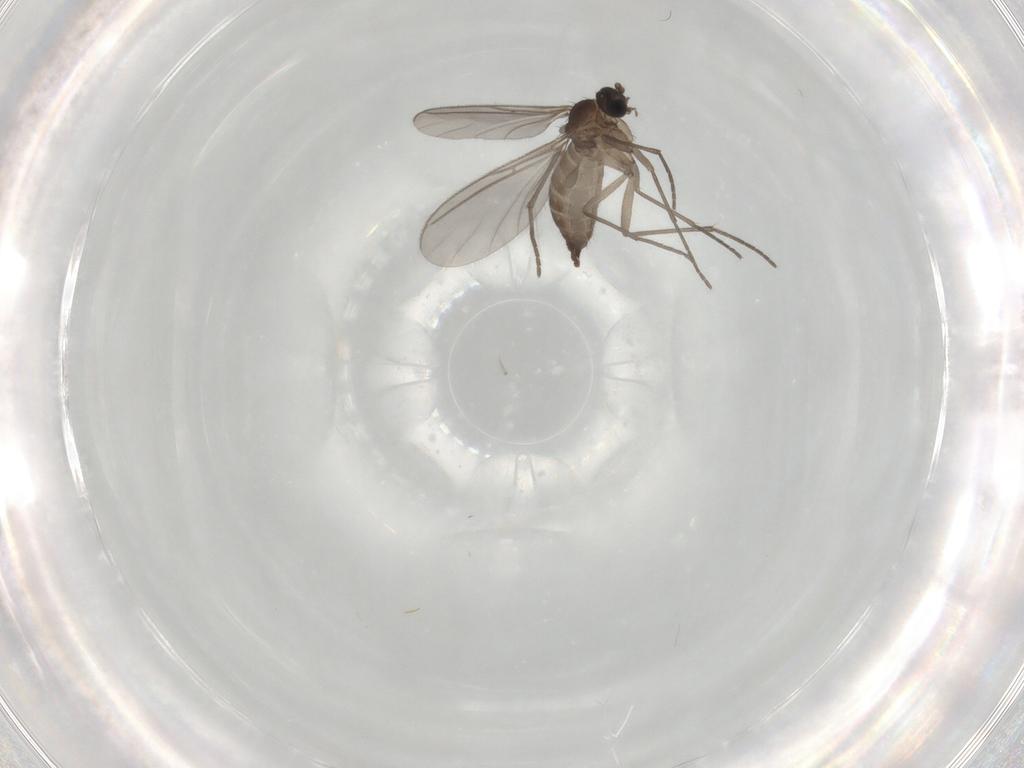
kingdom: Animalia
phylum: Arthropoda
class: Insecta
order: Diptera
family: Sciaridae
